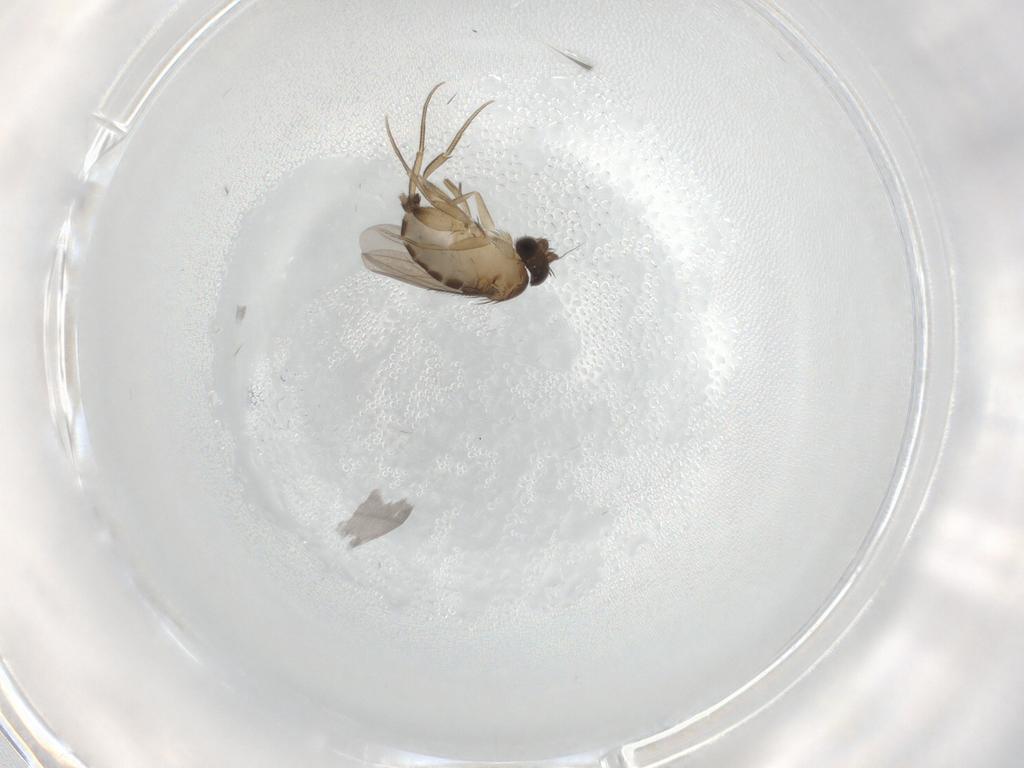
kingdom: Animalia
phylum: Arthropoda
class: Insecta
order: Diptera
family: Phoridae
